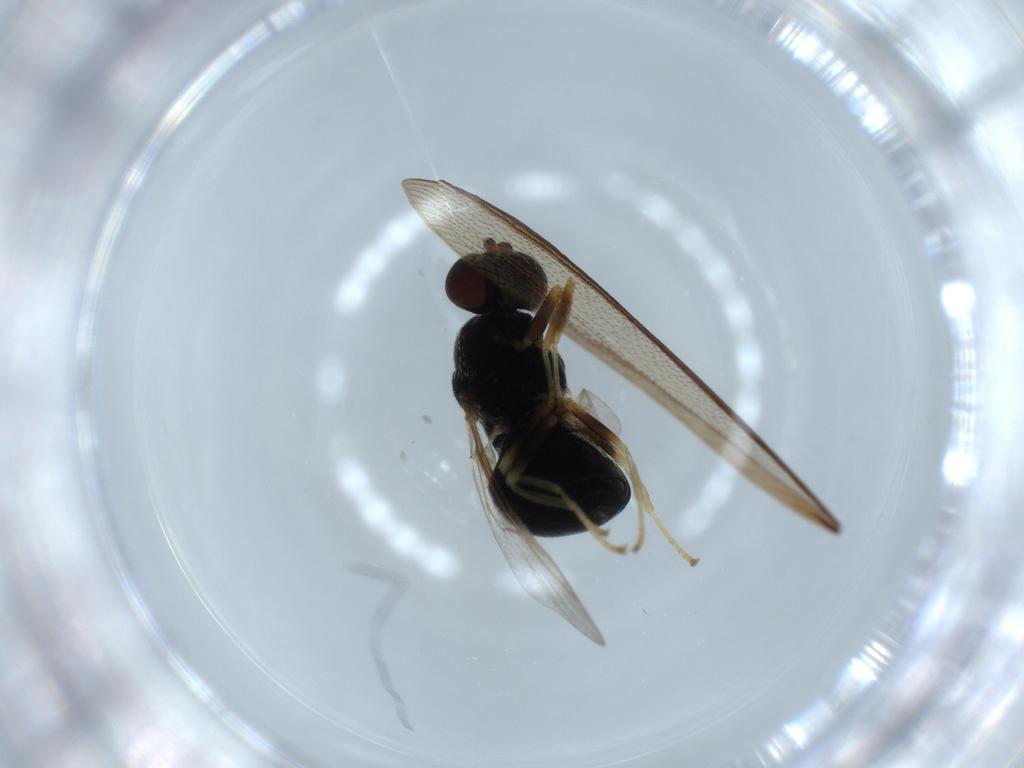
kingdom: Animalia
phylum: Arthropoda
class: Insecta
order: Diptera
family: Stratiomyidae
